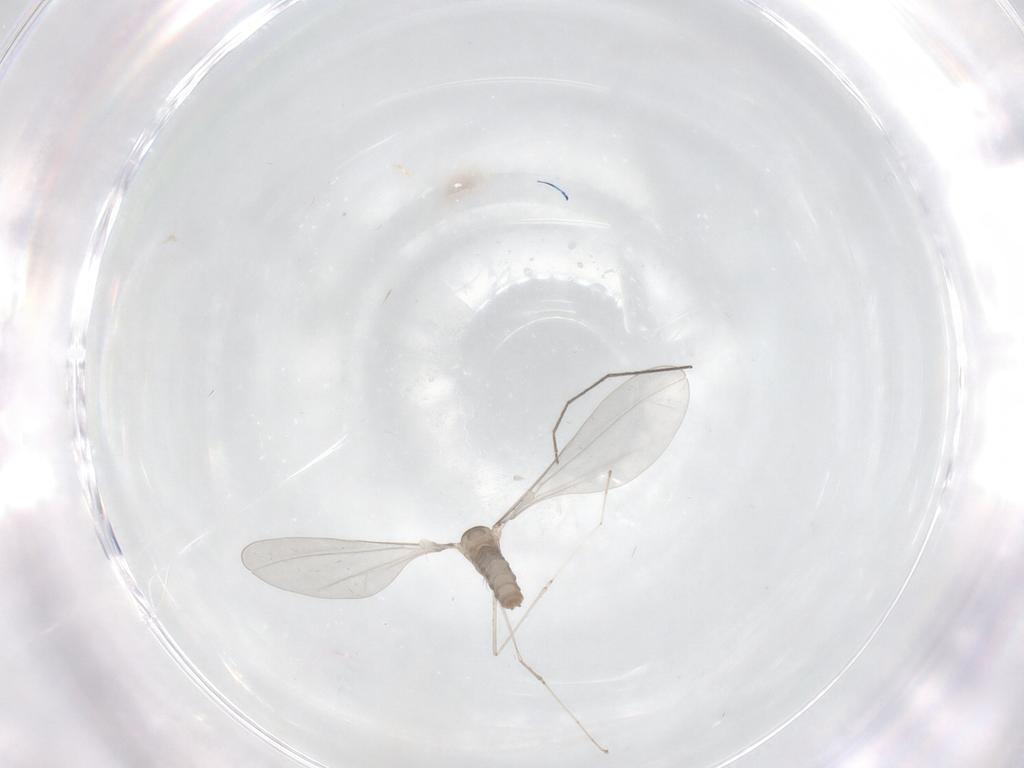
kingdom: Animalia
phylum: Arthropoda
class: Insecta
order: Diptera
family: Cecidomyiidae
